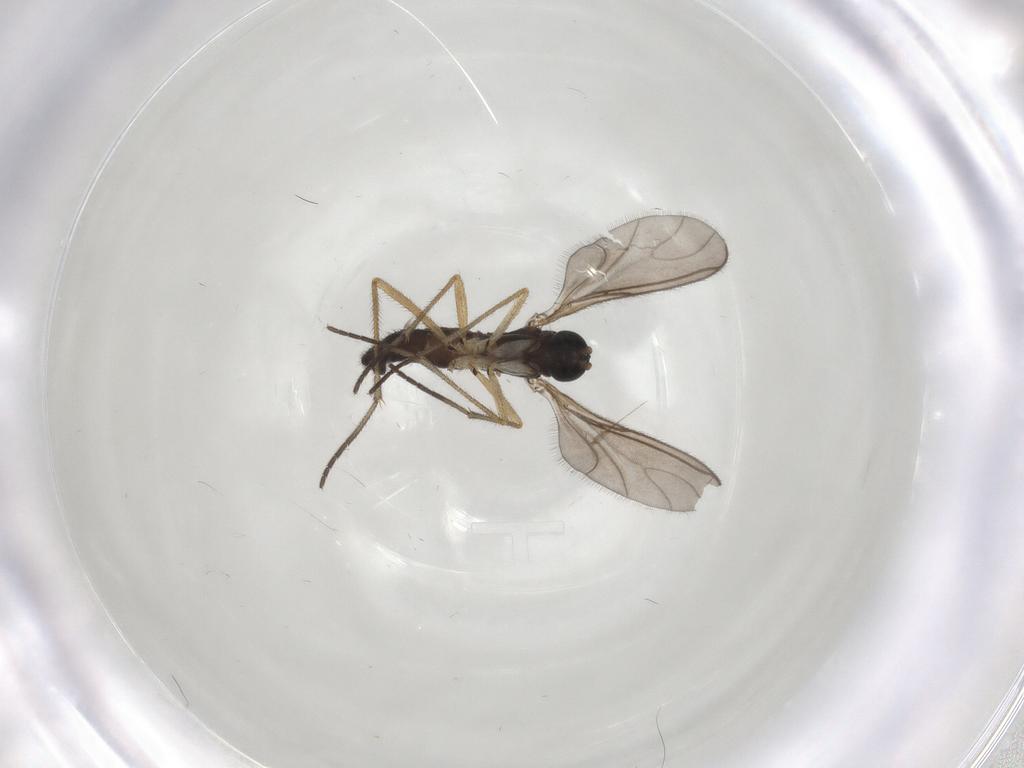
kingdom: Animalia
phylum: Arthropoda
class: Insecta
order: Diptera
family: Sciaridae
